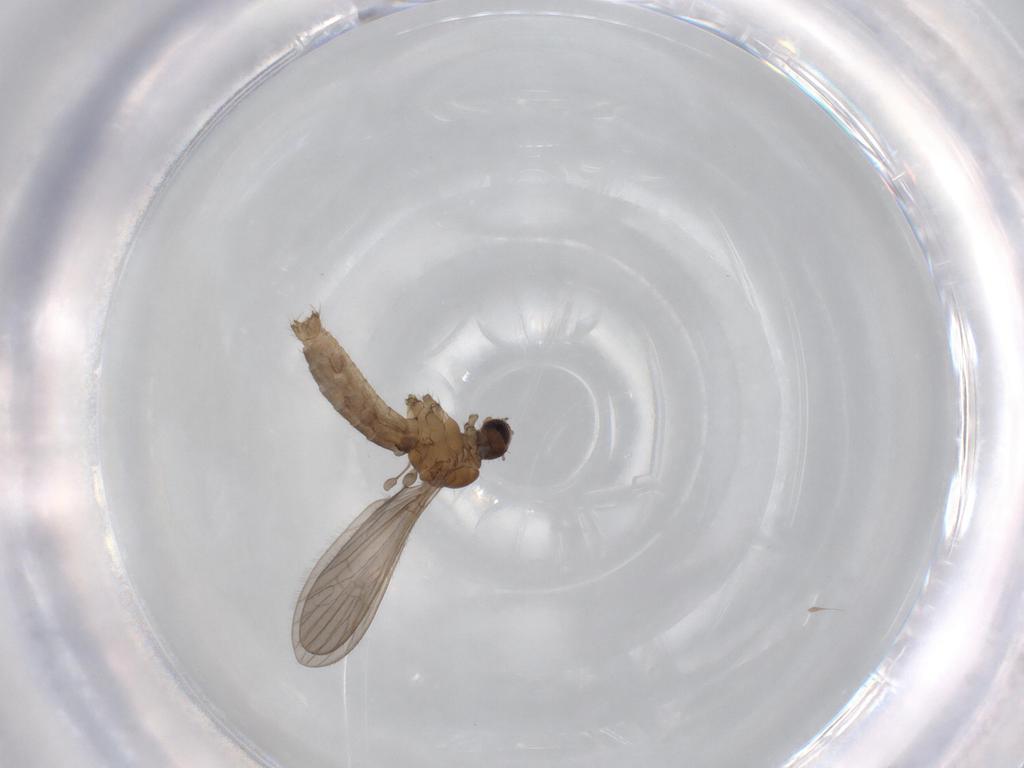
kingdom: Animalia
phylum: Arthropoda
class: Insecta
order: Diptera
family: Limoniidae
